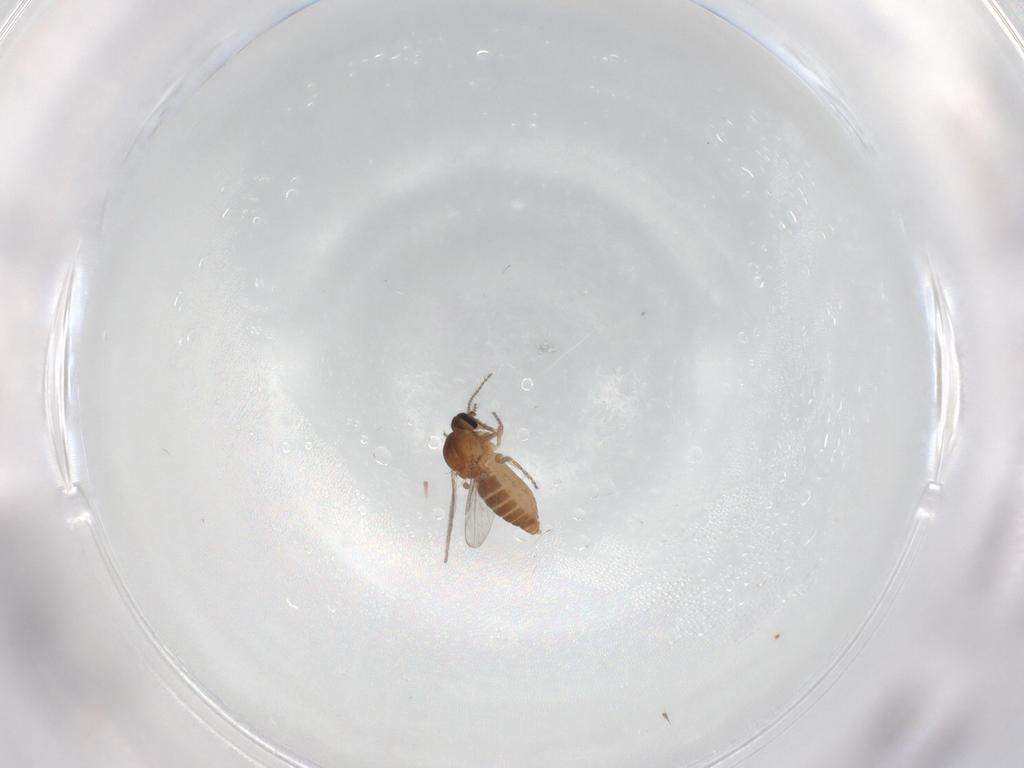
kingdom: Animalia
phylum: Arthropoda
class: Insecta
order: Diptera
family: Ceratopogonidae
